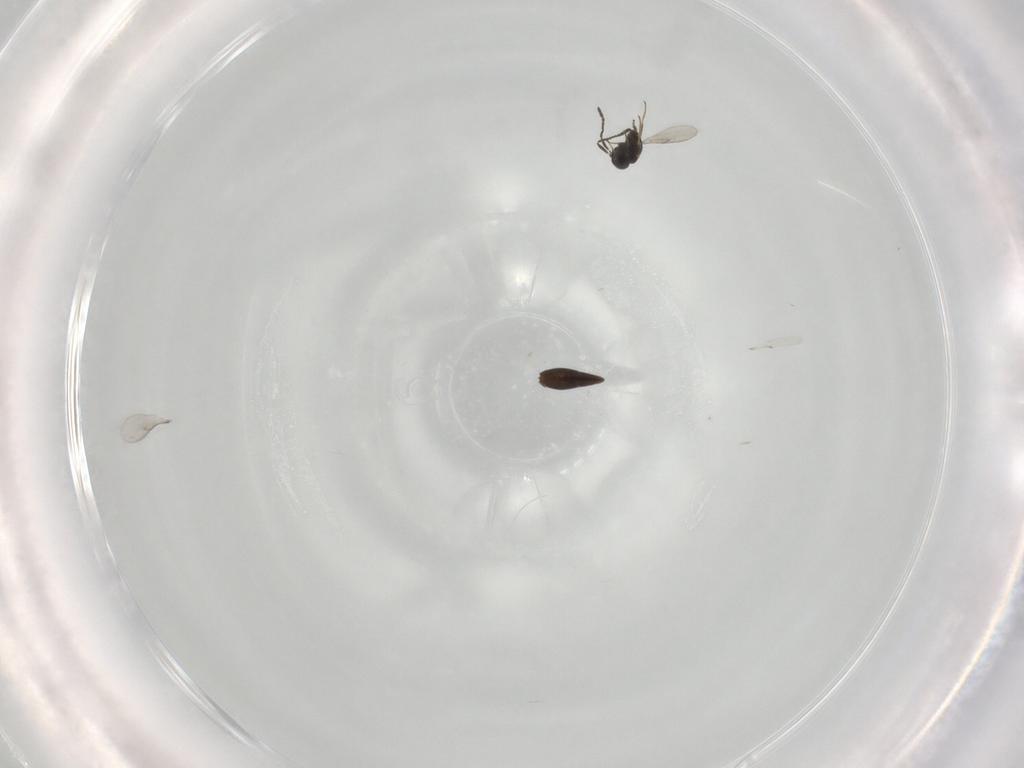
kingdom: Animalia
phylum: Arthropoda
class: Insecta
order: Hymenoptera
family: Scelionidae
